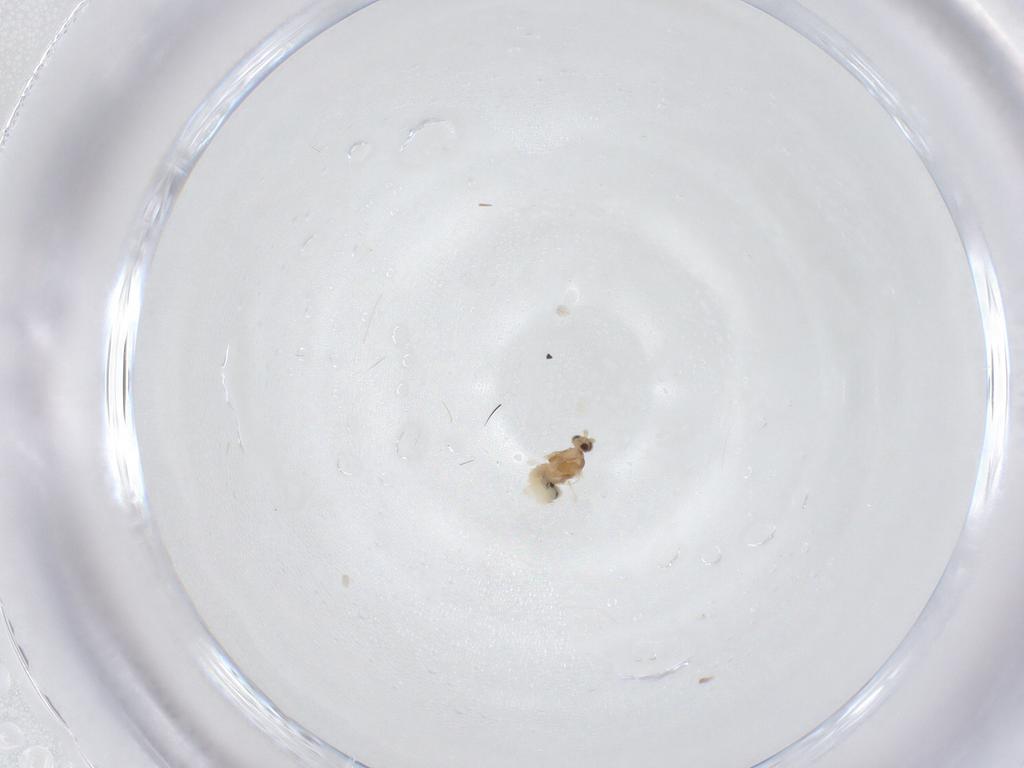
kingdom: Animalia
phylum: Arthropoda
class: Insecta
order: Diptera
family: Cecidomyiidae
